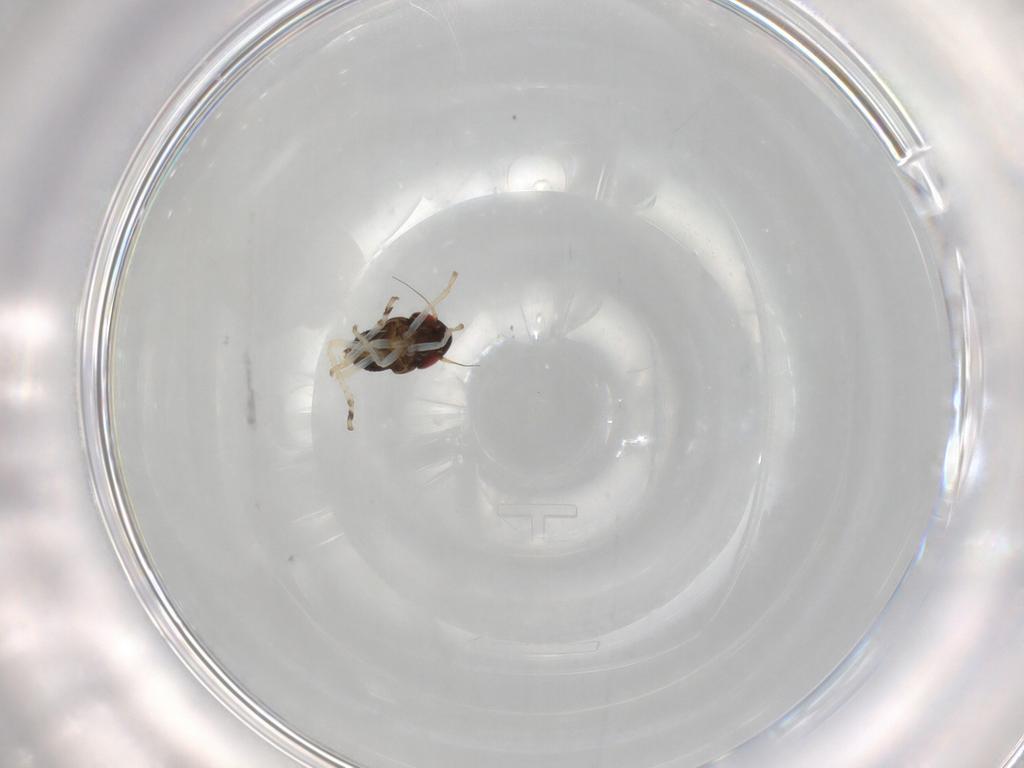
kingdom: Animalia
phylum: Arthropoda
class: Insecta
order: Hemiptera
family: Cicadellidae
